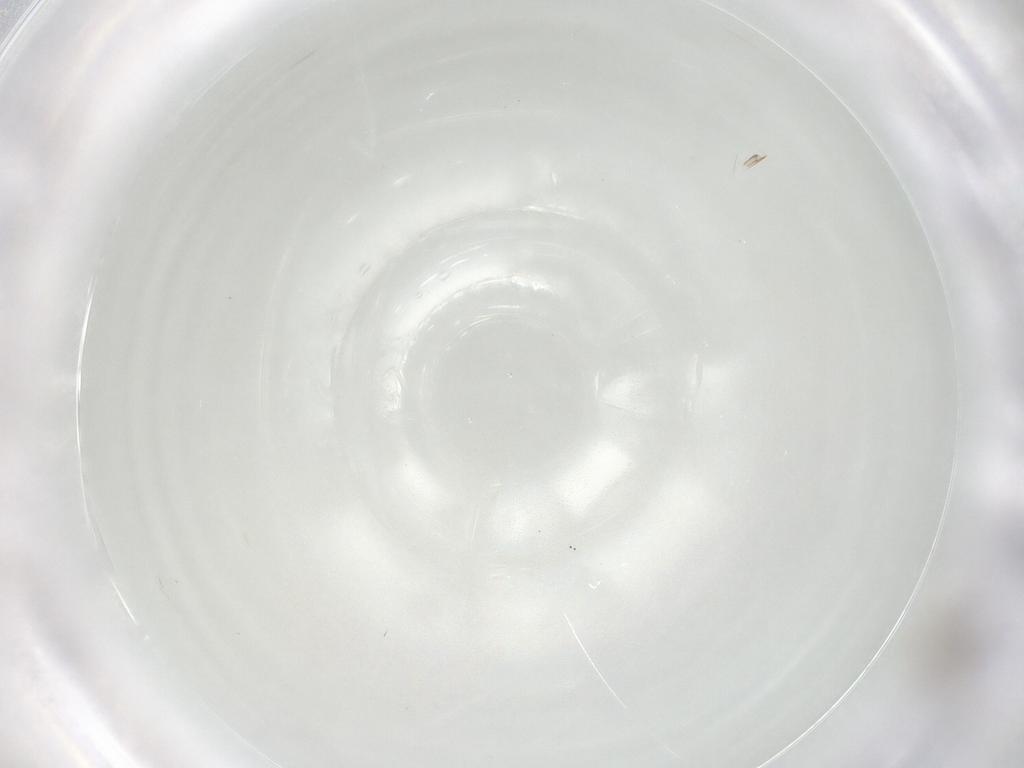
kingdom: Animalia
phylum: Arthropoda
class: Insecta
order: Hymenoptera
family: Mymaridae
